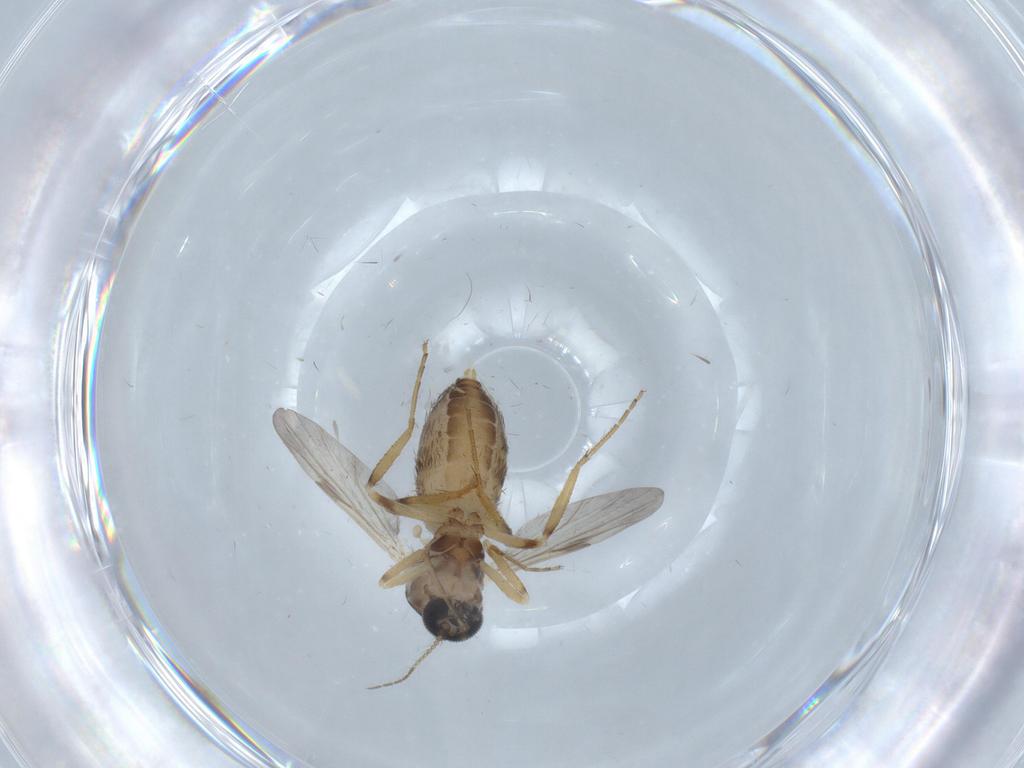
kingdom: Animalia
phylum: Arthropoda
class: Insecta
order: Diptera
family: Ceratopogonidae
